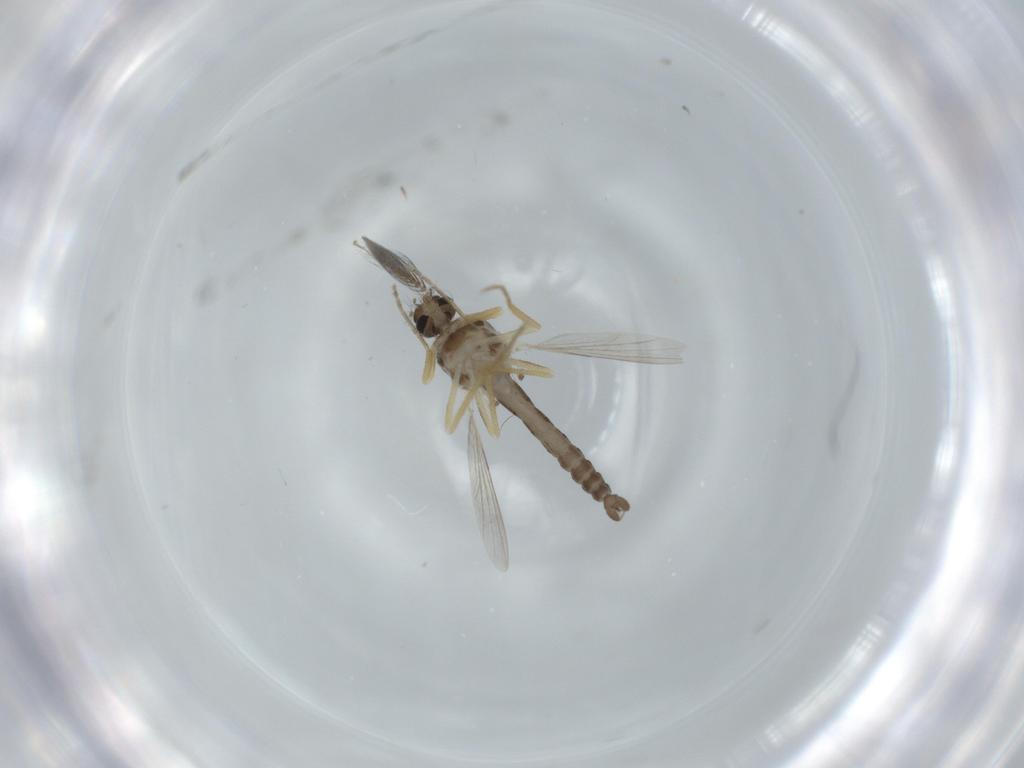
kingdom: Animalia
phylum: Arthropoda
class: Insecta
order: Diptera
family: Ceratopogonidae
